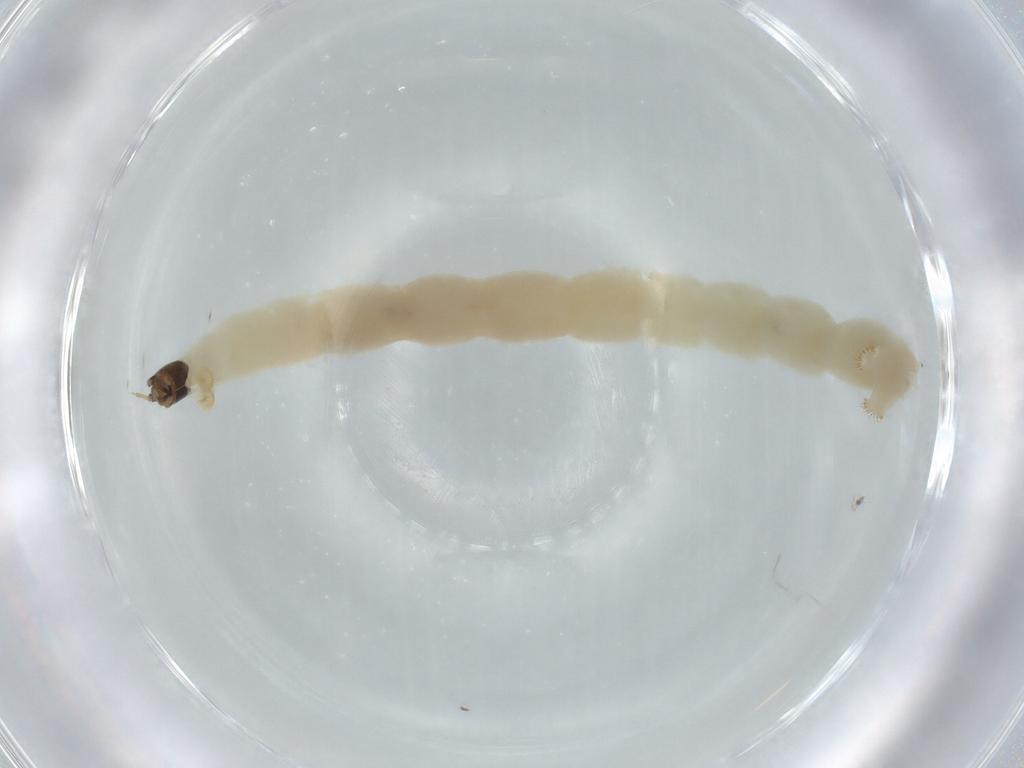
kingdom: Animalia
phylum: Arthropoda
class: Insecta
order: Diptera
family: Chironomidae
